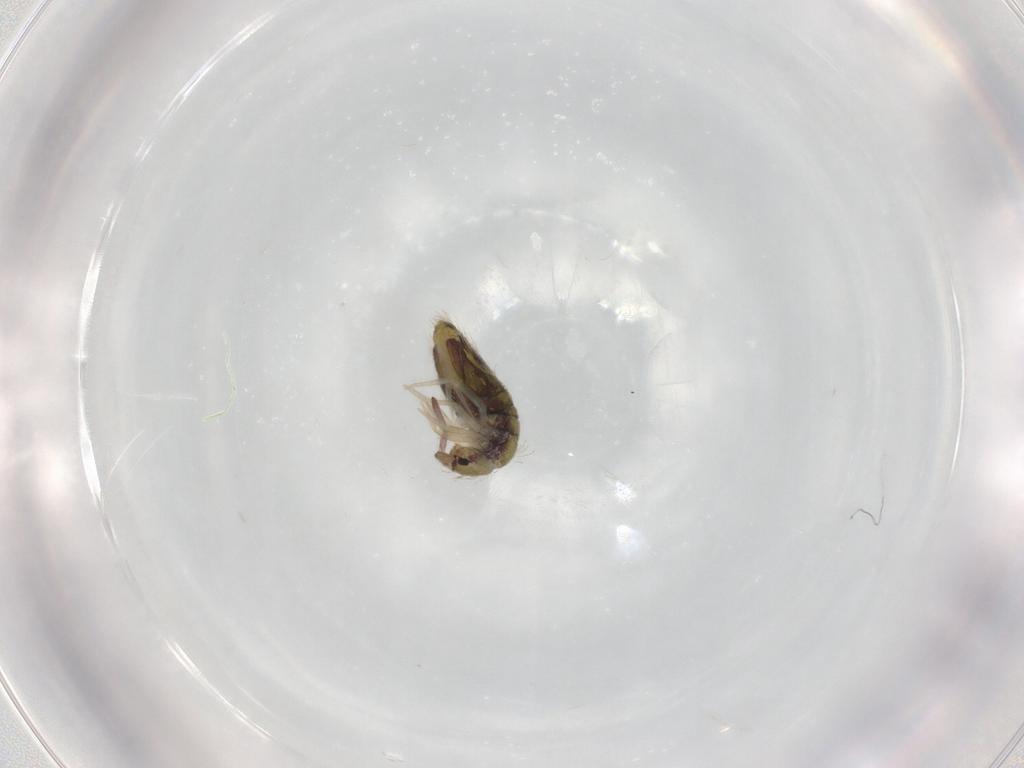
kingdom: Animalia
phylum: Arthropoda
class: Collembola
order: Entomobryomorpha
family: Entomobryidae
